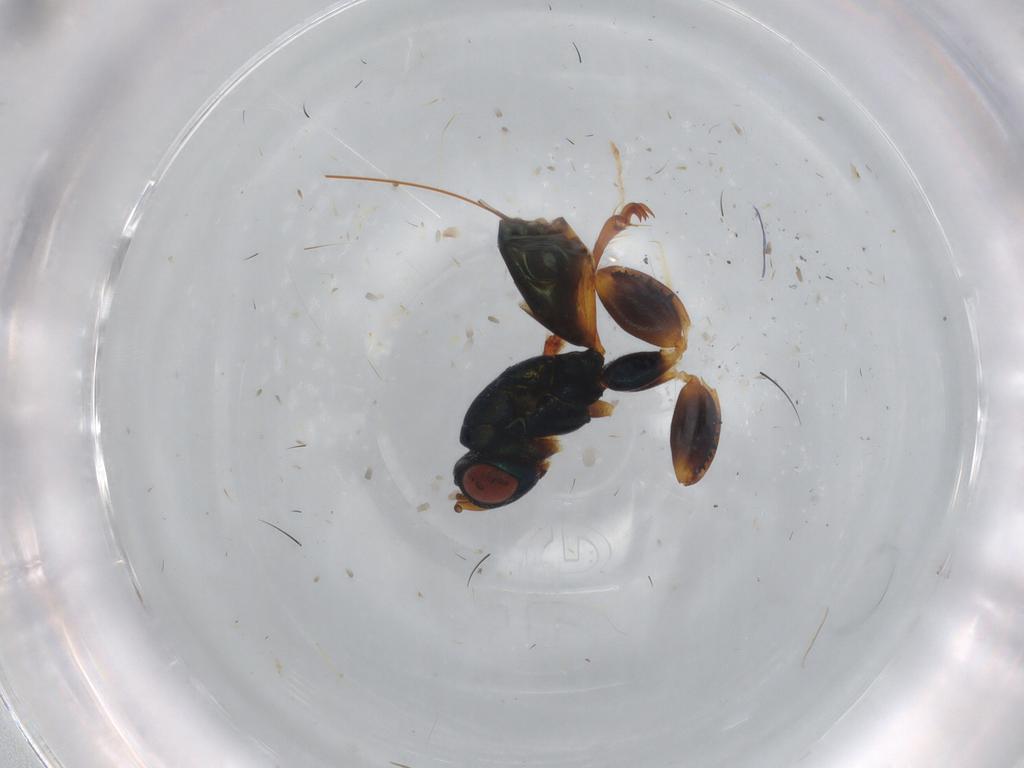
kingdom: Animalia
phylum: Arthropoda
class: Insecta
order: Hymenoptera
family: Torymidae
